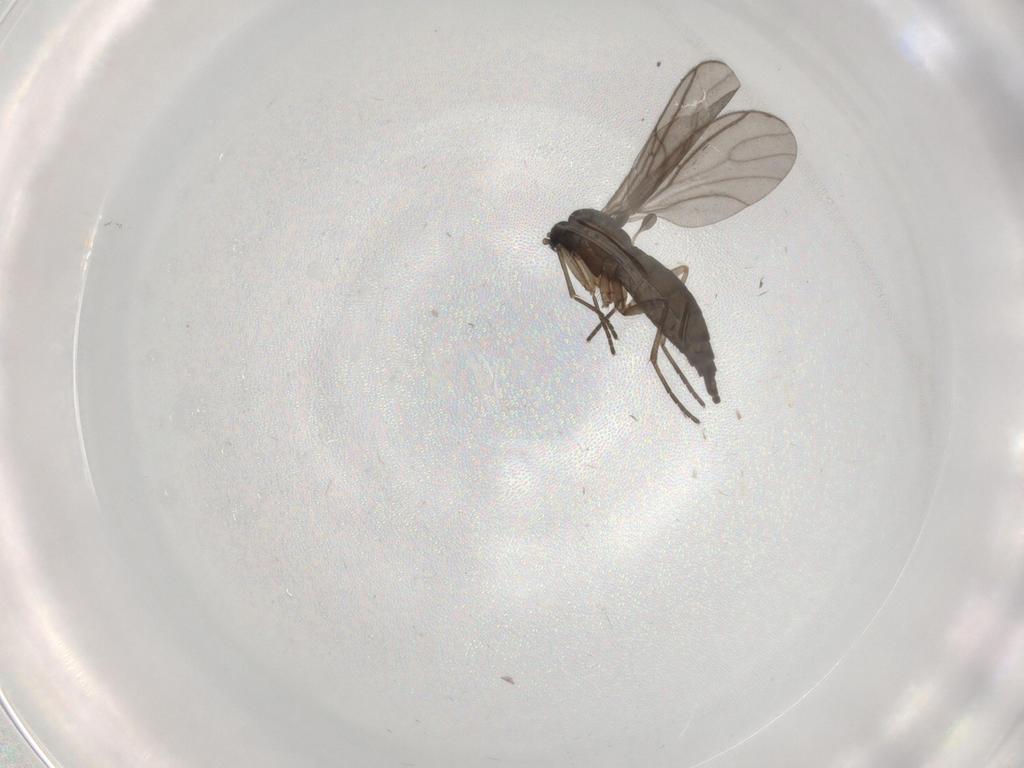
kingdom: Animalia
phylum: Arthropoda
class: Insecta
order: Diptera
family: Sciaridae
